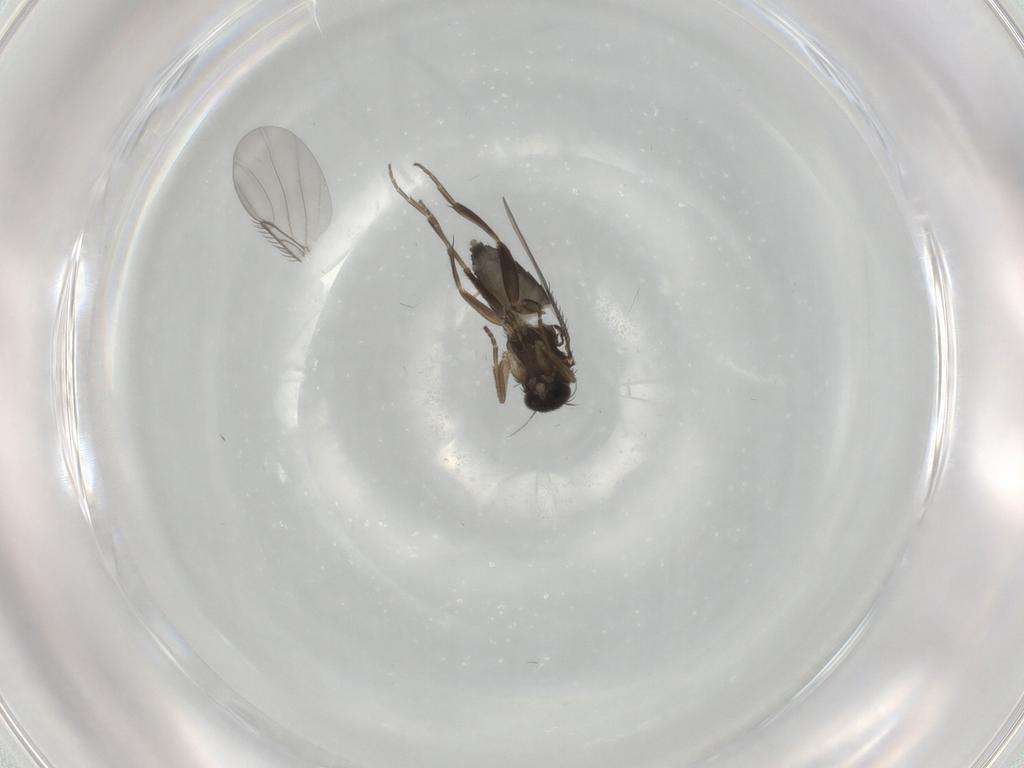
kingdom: Animalia
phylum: Arthropoda
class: Insecta
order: Diptera
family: Phoridae
